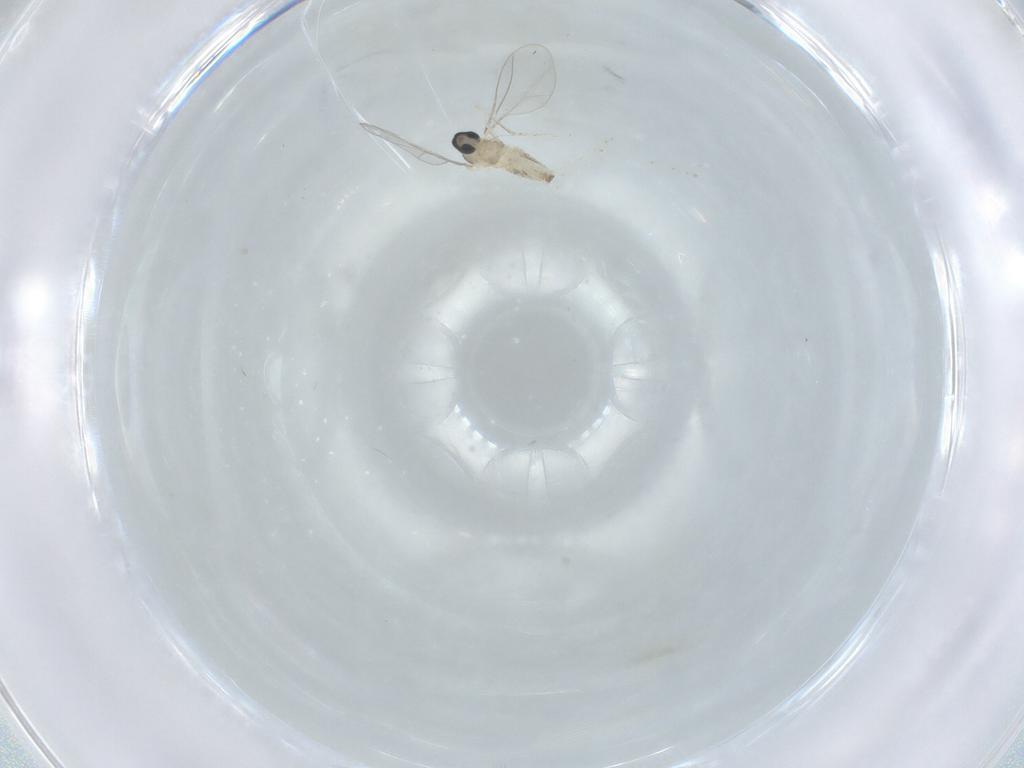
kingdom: Animalia
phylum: Arthropoda
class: Insecta
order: Diptera
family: Cecidomyiidae
